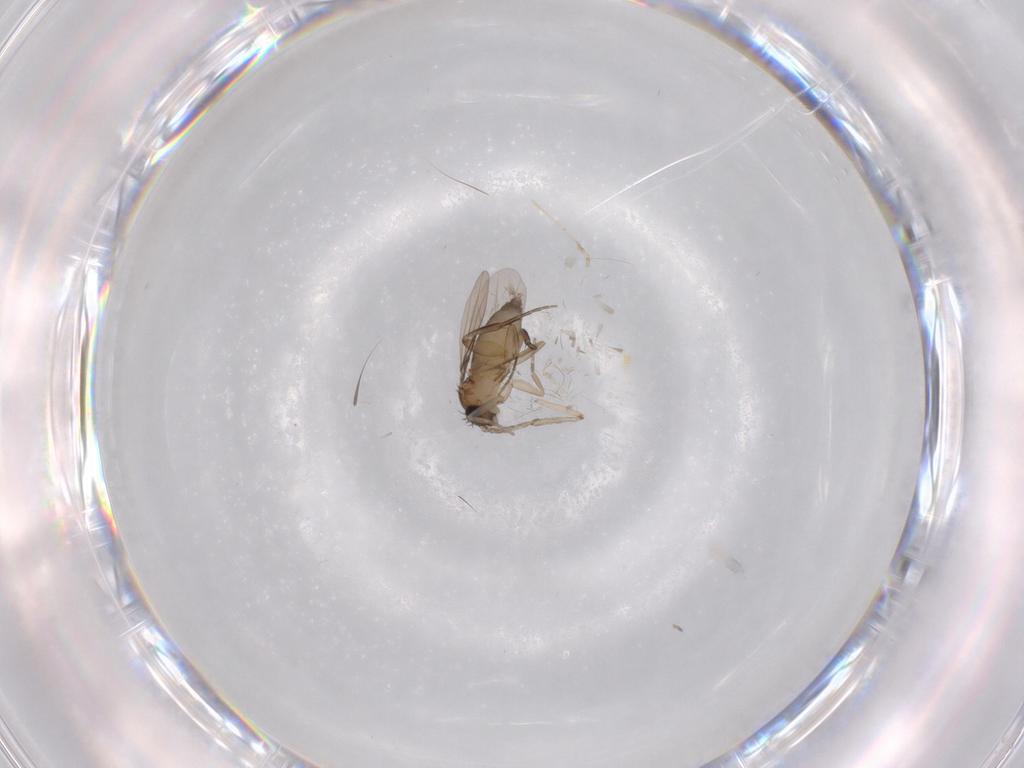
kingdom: Animalia
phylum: Arthropoda
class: Insecta
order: Diptera
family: Phoridae
